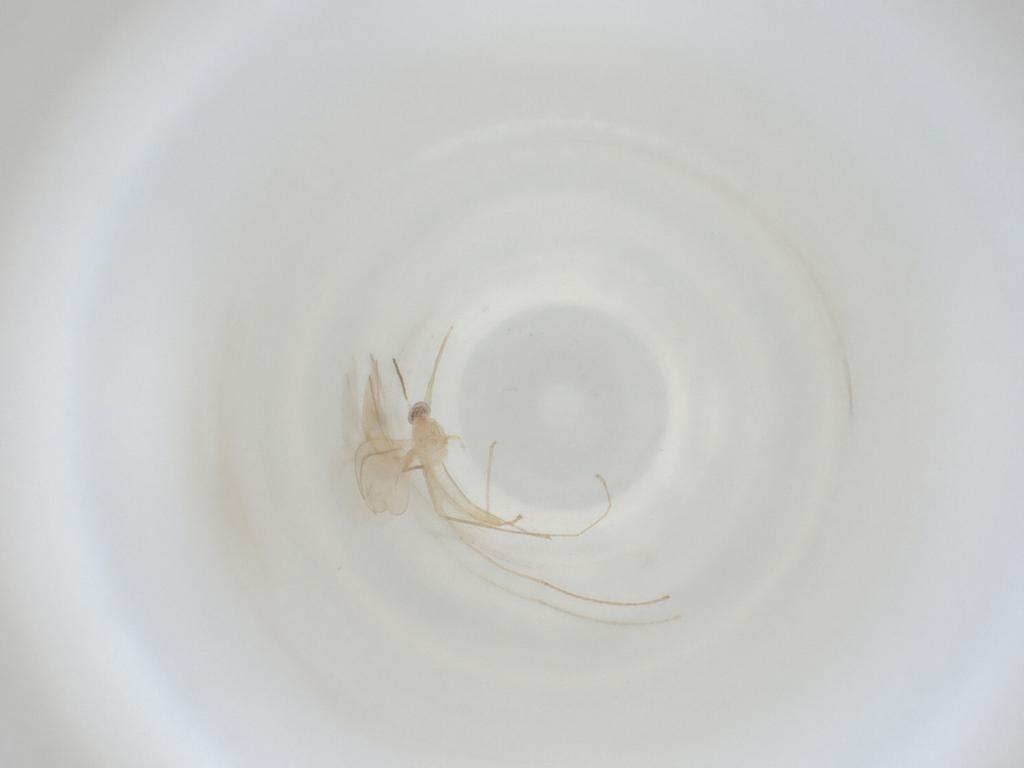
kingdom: Animalia
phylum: Arthropoda
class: Insecta
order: Diptera
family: Cecidomyiidae
